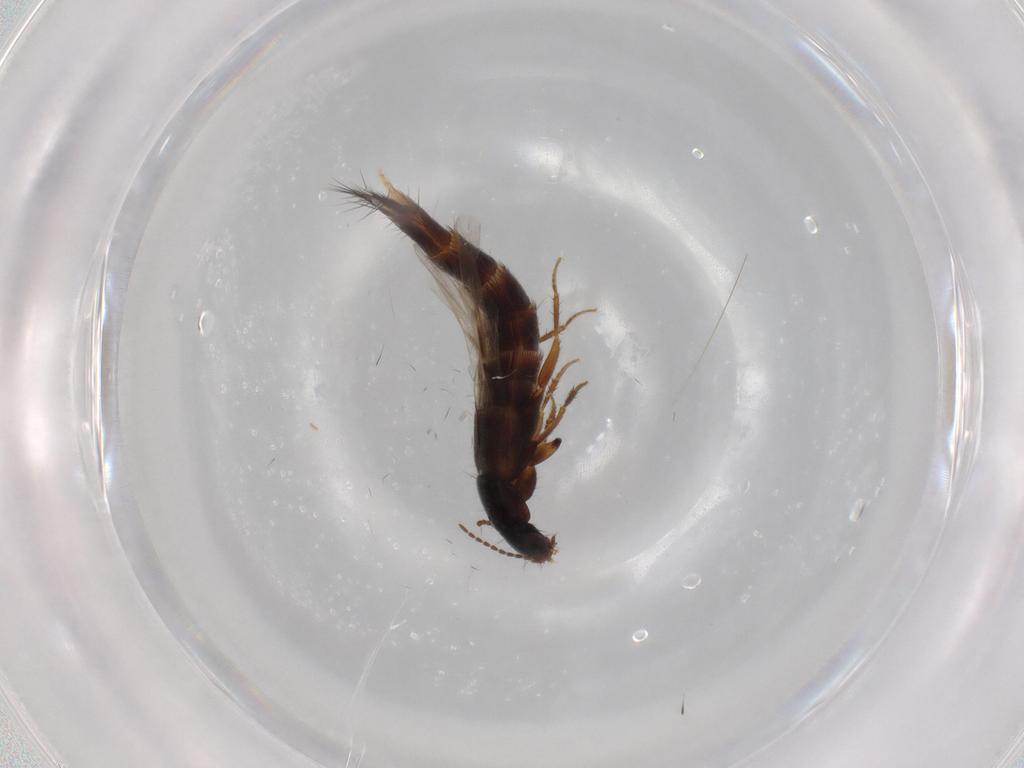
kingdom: Animalia
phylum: Arthropoda
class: Insecta
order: Coleoptera
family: Staphylinidae
